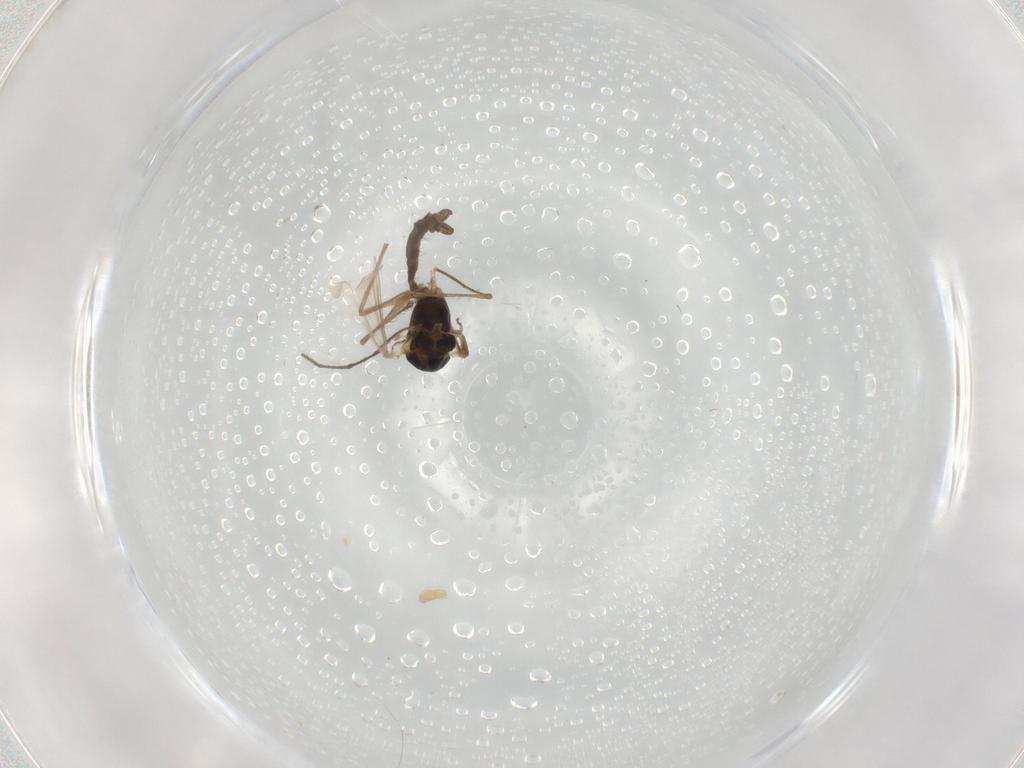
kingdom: Animalia
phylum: Arthropoda
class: Insecta
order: Diptera
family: Chironomidae
